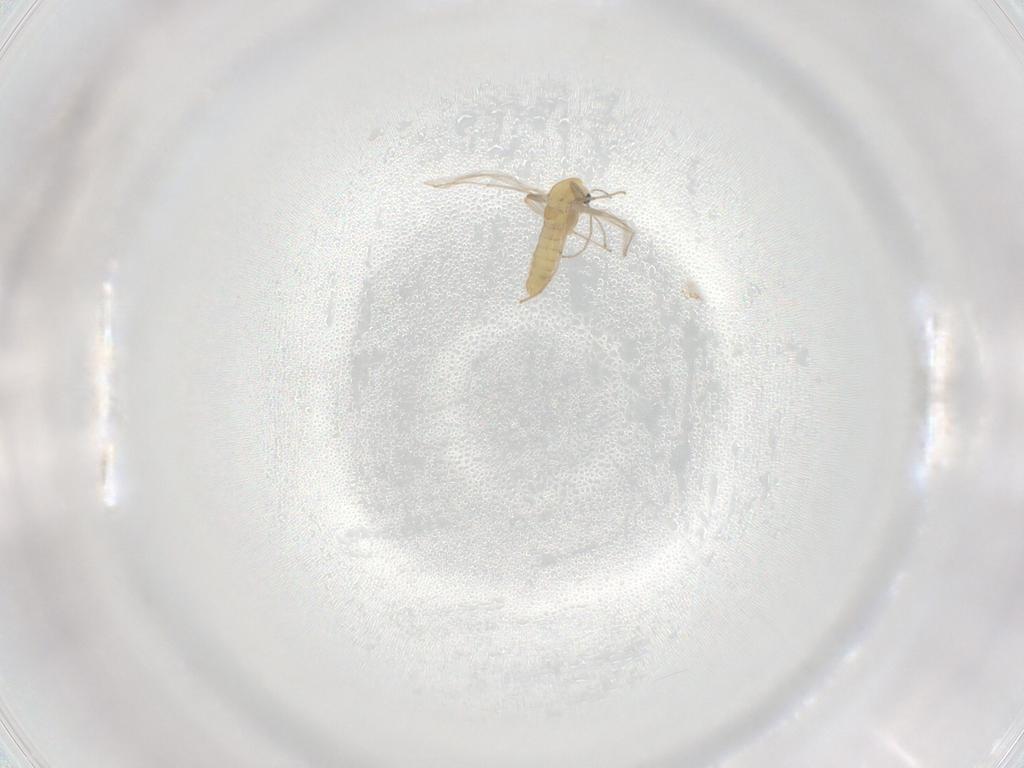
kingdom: Animalia
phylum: Arthropoda
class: Insecta
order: Diptera
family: Chironomidae
